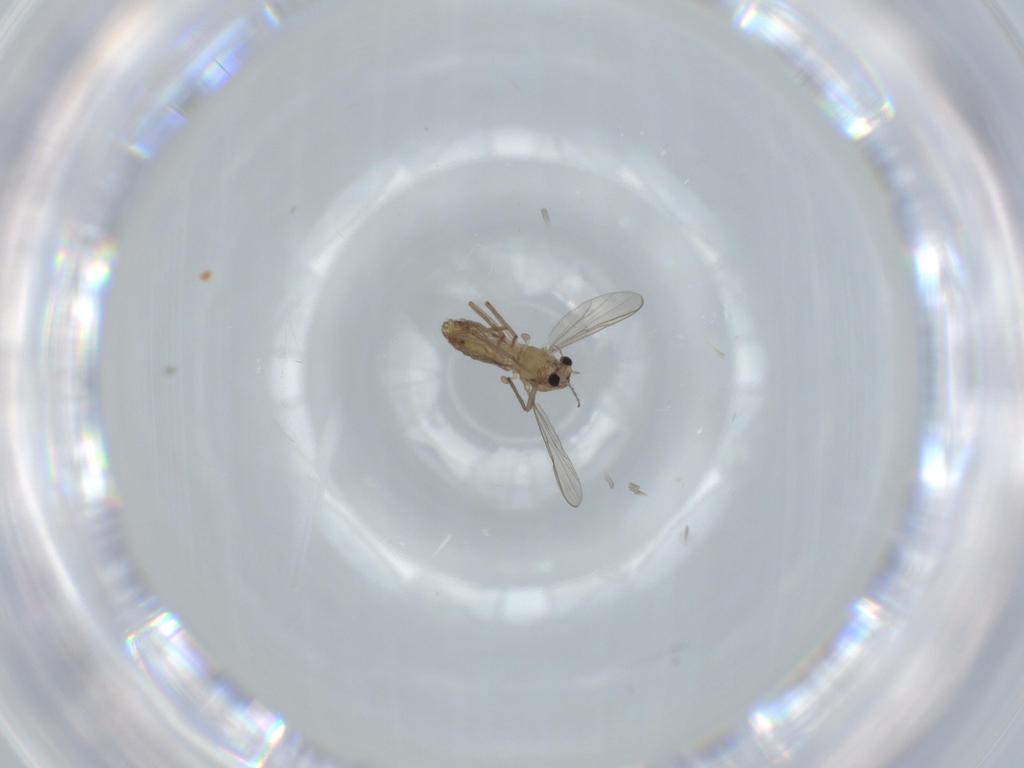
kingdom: Animalia
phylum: Arthropoda
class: Insecta
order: Diptera
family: Chironomidae
